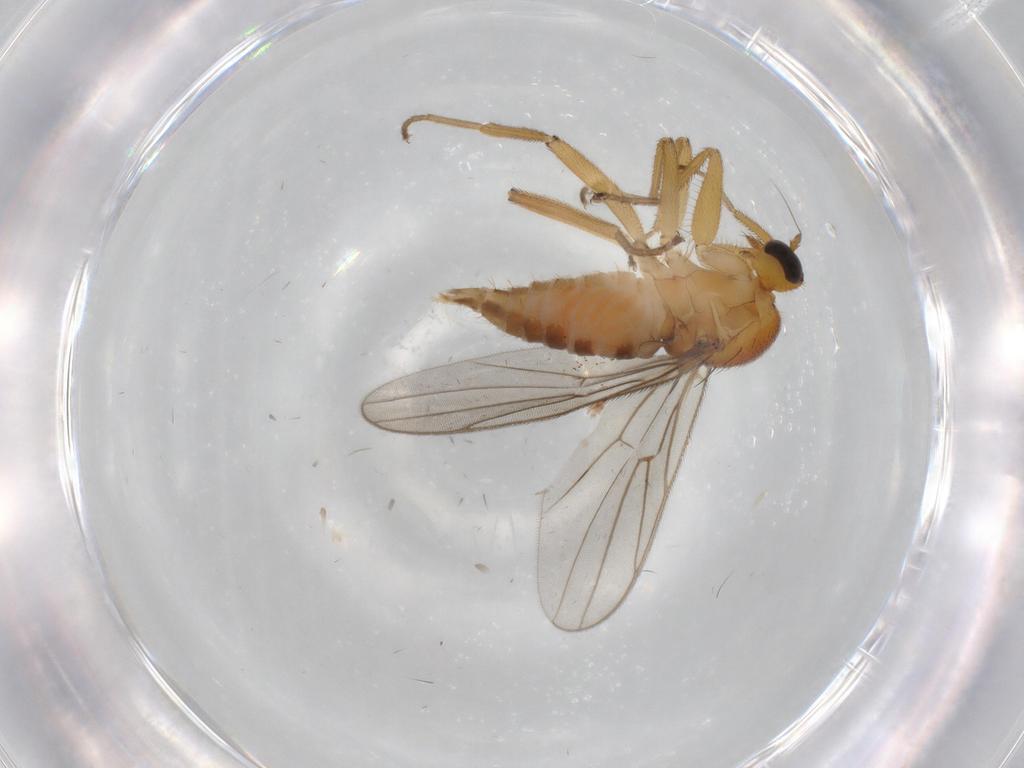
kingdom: Animalia
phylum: Arthropoda
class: Insecta
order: Diptera
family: Hybotidae
